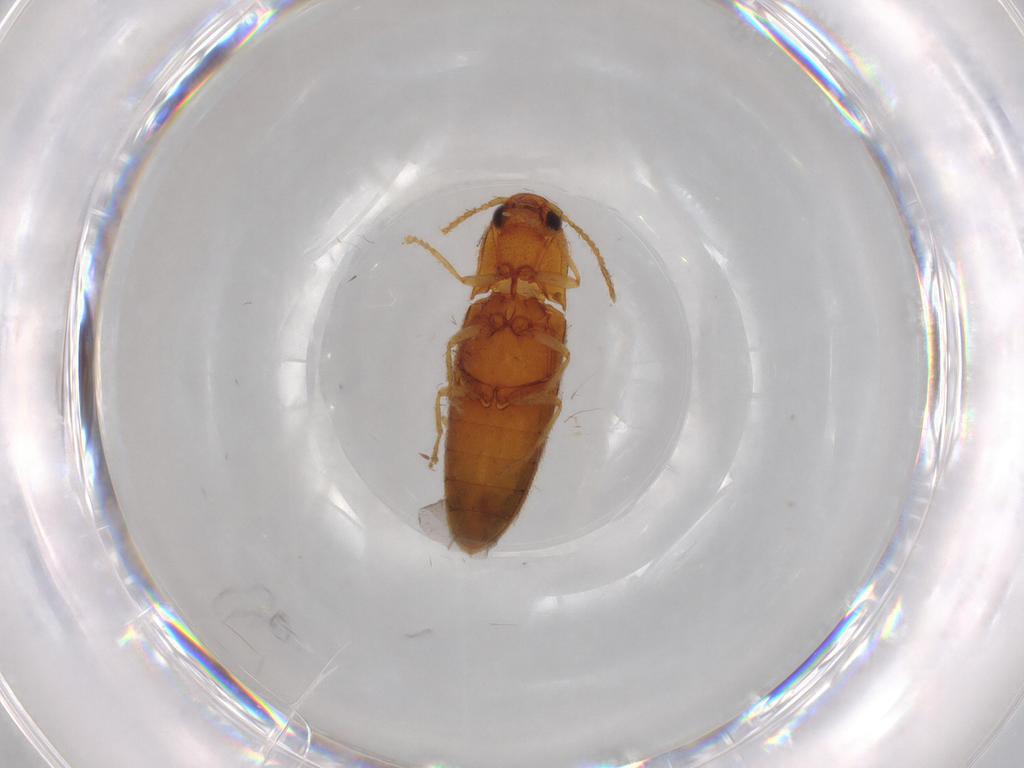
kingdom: Animalia
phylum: Arthropoda
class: Insecta
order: Coleoptera
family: Elateridae
